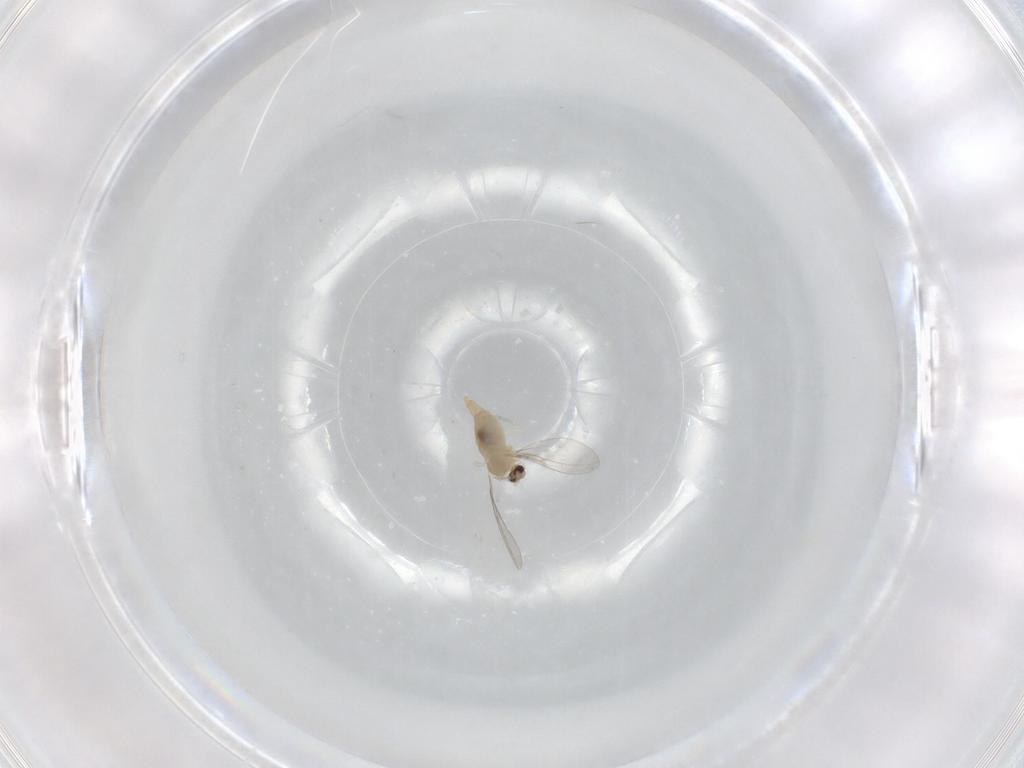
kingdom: Animalia
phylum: Arthropoda
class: Insecta
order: Diptera
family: Cecidomyiidae
